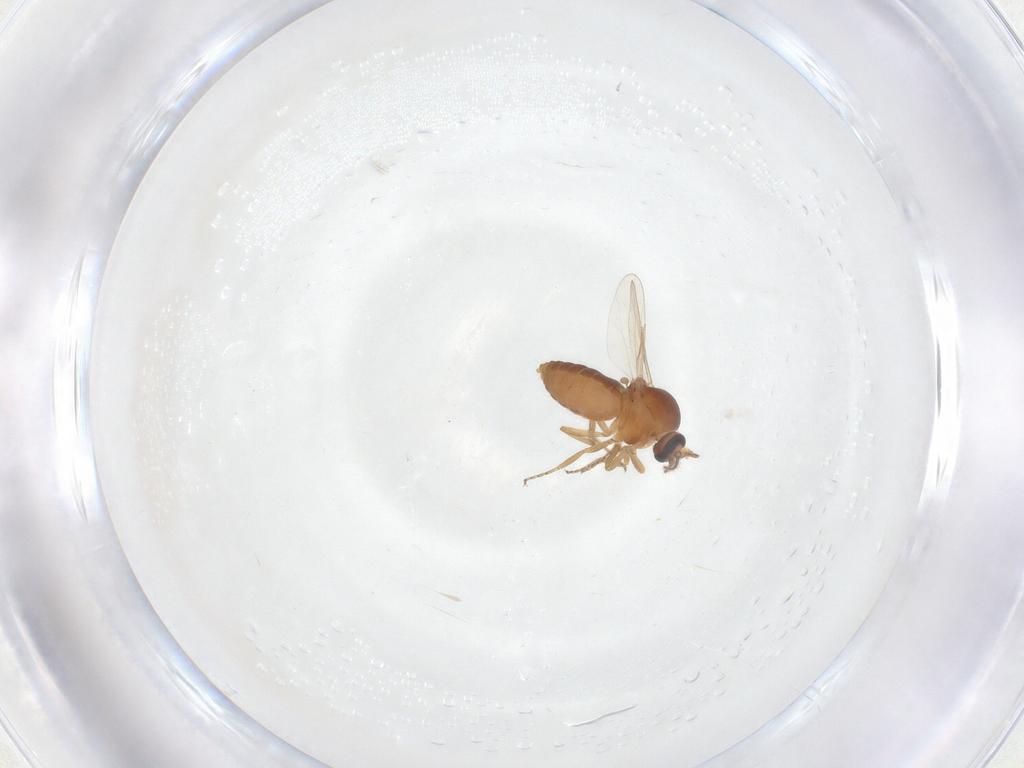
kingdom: Animalia
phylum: Arthropoda
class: Insecta
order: Diptera
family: Ceratopogonidae
